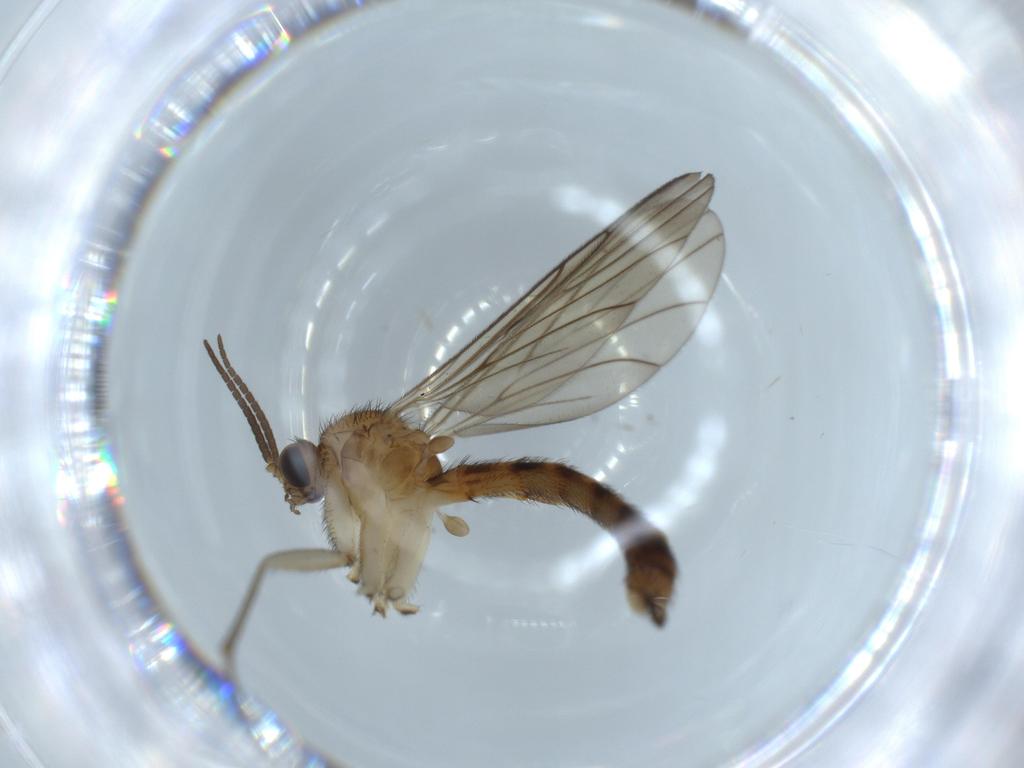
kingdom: Animalia
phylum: Arthropoda
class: Insecta
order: Diptera
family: Keroplatidae
